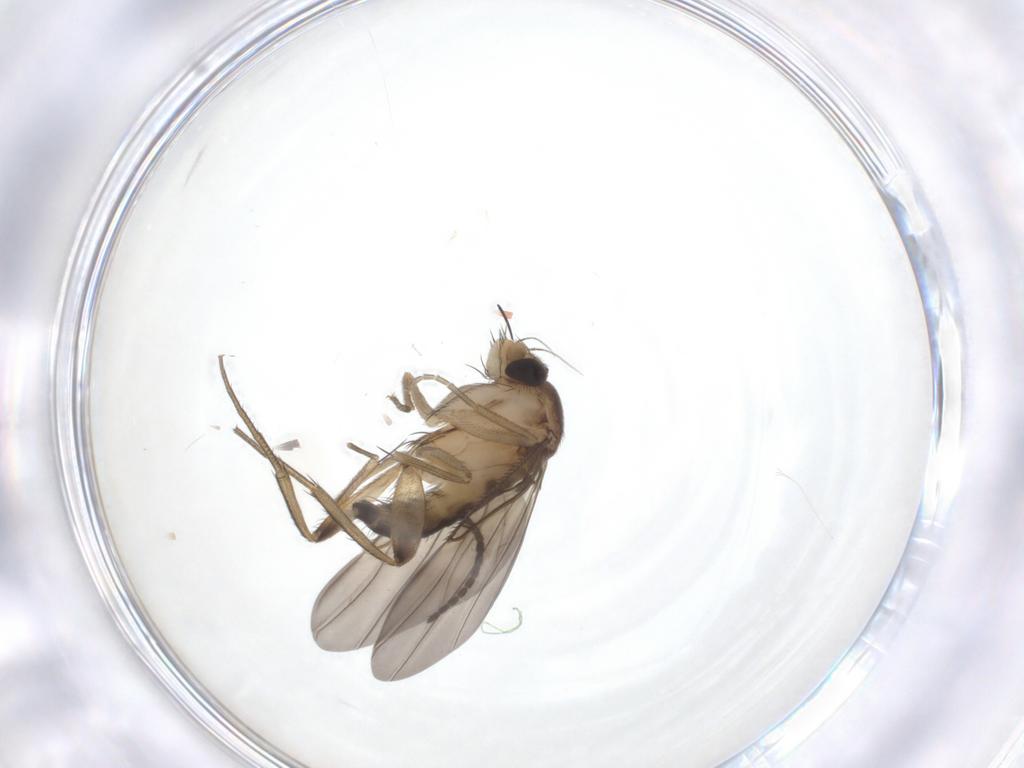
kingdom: Animalia
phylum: Arthropoda
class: Insecta
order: Diptera
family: Phoridae
